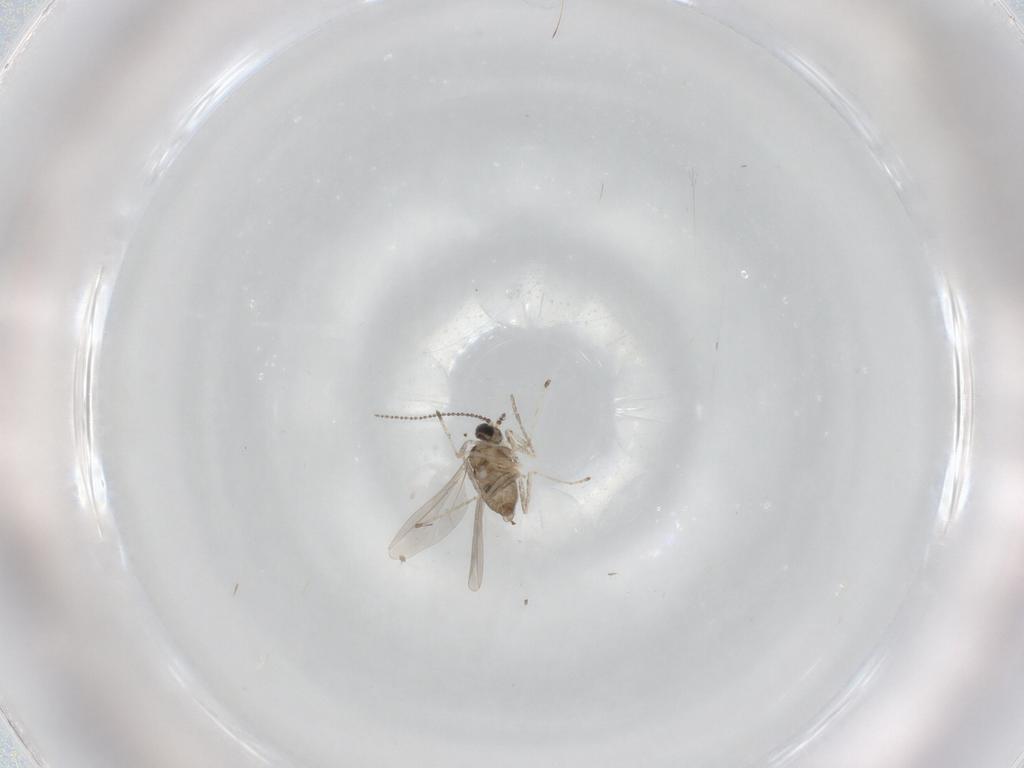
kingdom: Animalia
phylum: Arthropoda
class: Insecta
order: Diptera
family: Cecidomyiidae
